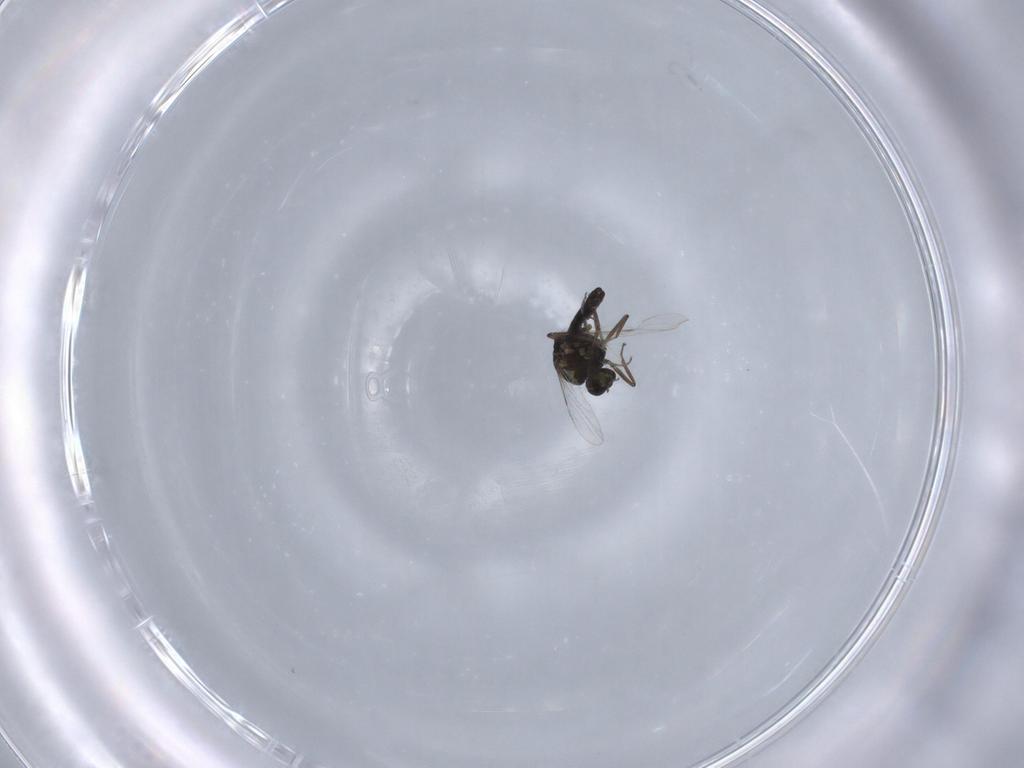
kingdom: Animalia
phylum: Arthropoda
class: Insecta
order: Diptera
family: Ceratopogonidae
